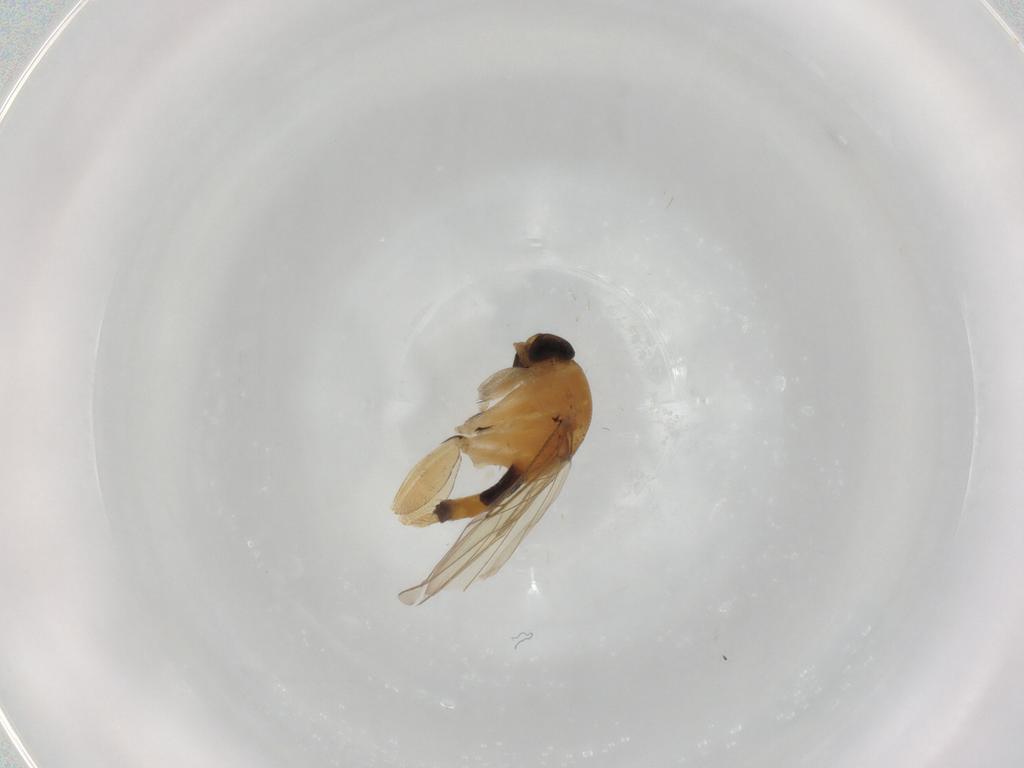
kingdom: Animalia
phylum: Arthropoda
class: Insecta
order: Diptera
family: Phoridae
